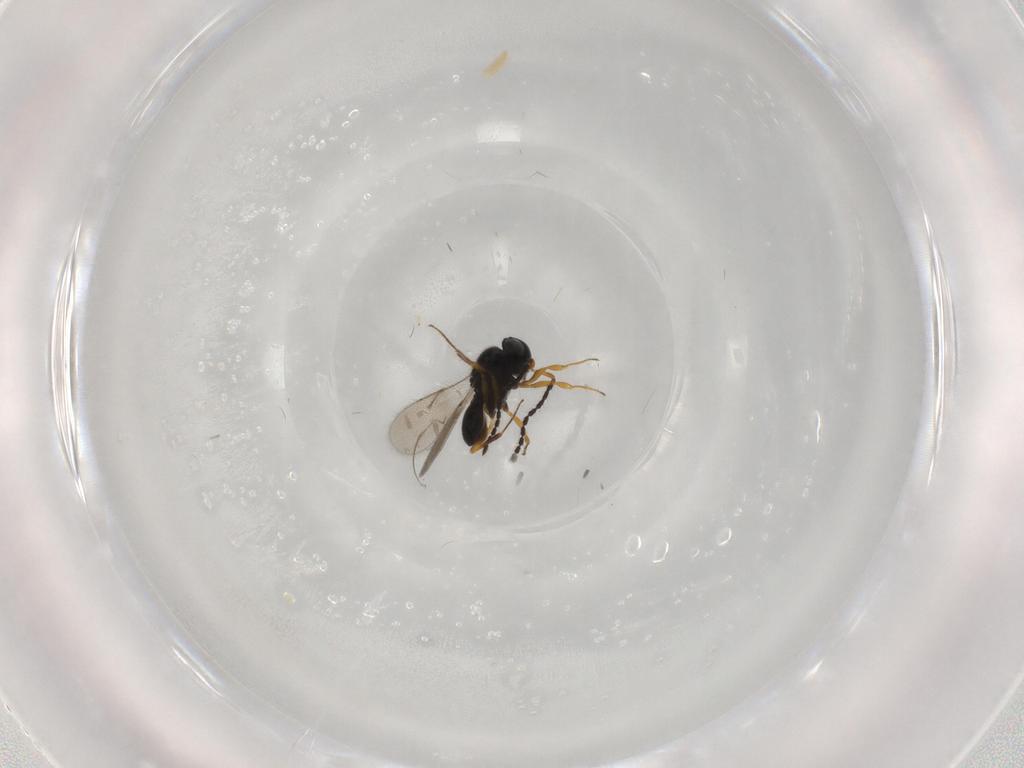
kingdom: Animalia
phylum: Arthropoda
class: Insecta
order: Hymenoptera
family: Scelionidae
